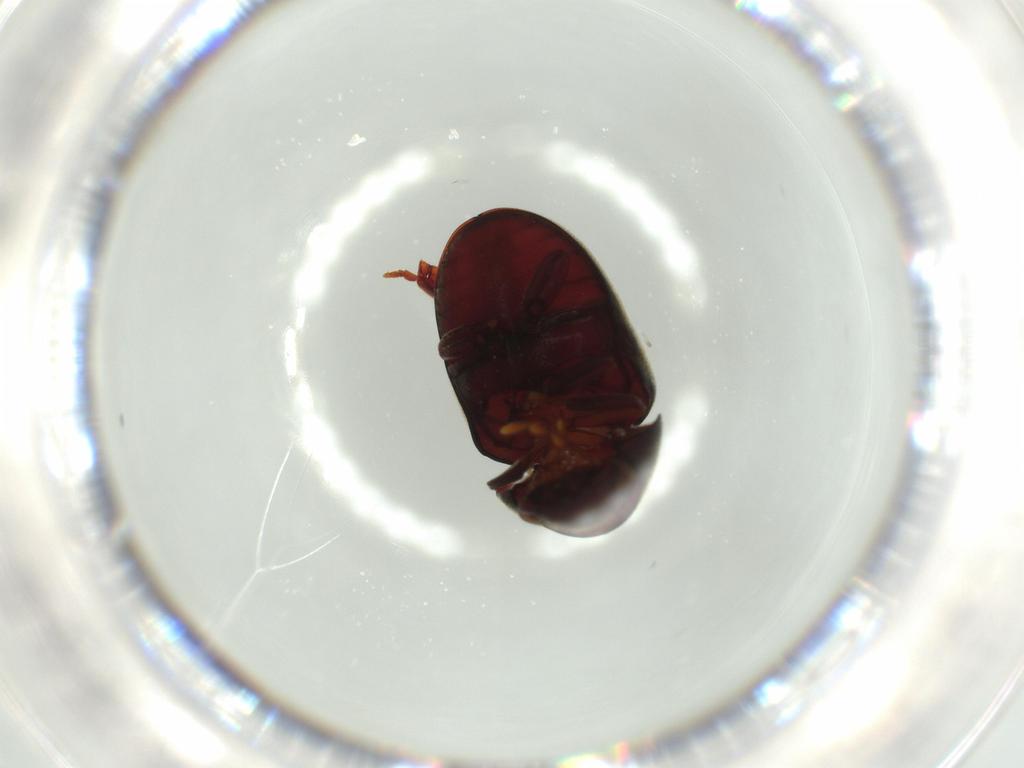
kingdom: Animalia
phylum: Arthropoda
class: Insecta
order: Coleoptera
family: Ptinidae
